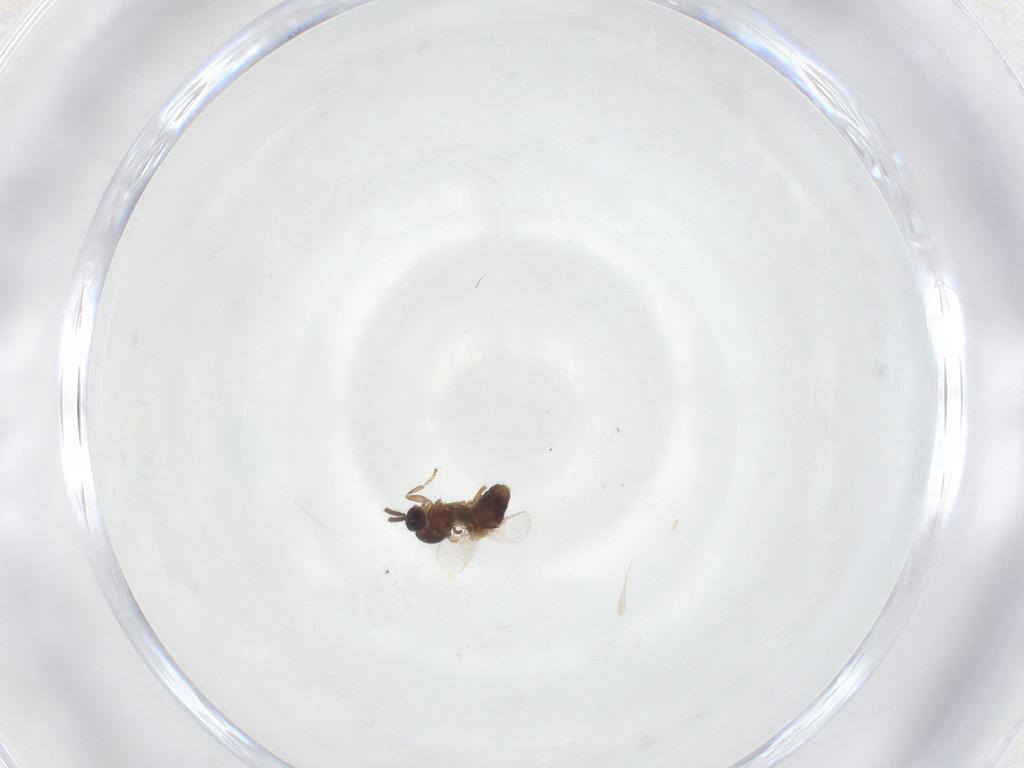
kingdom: Animalia
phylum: Arthropoda
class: Insecta
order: Diptera
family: Scatopsidae
